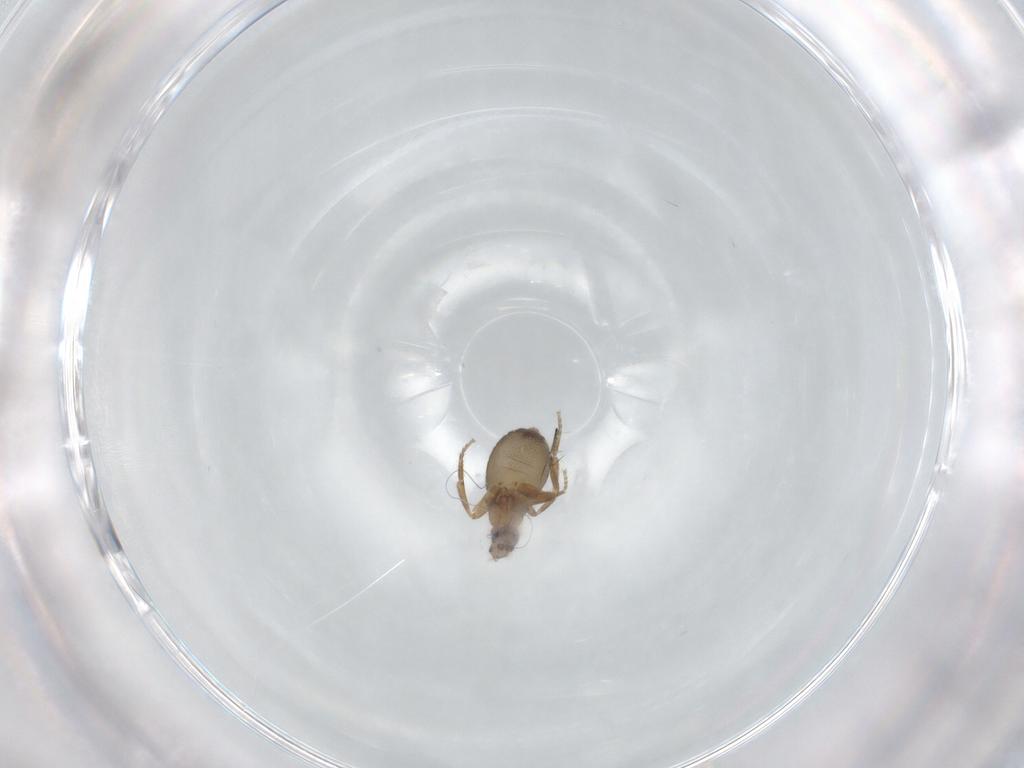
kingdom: Animalia
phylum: Arthropoda
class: Insecta
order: Diptera
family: Phoridae
